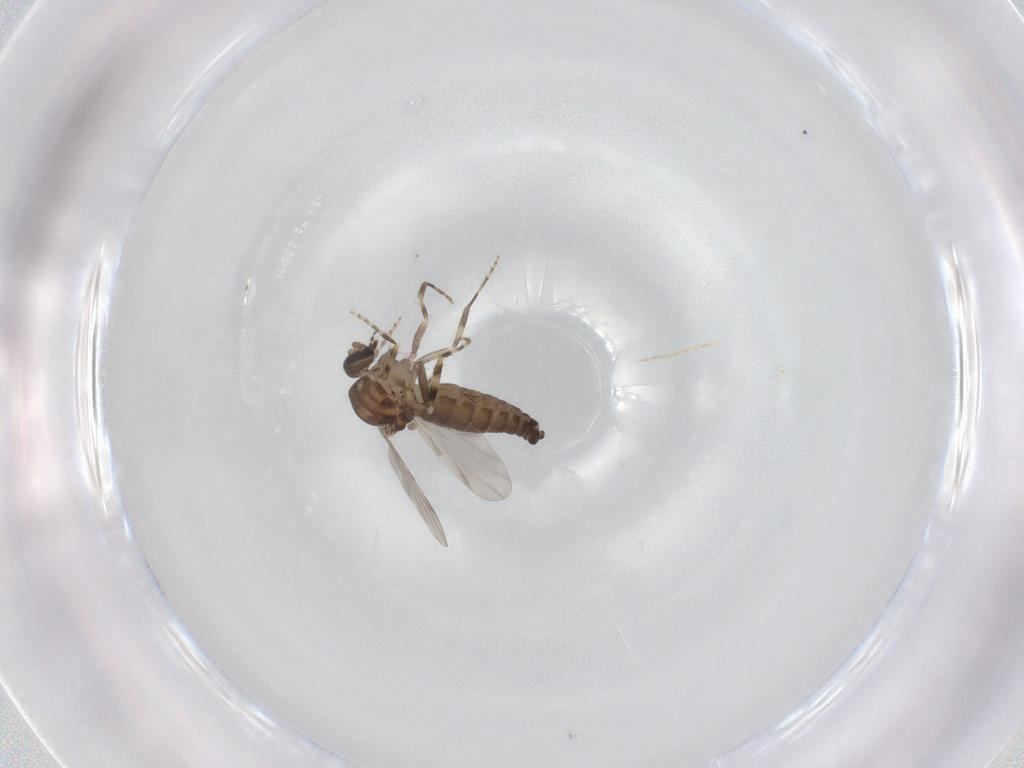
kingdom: Animalia
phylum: Arthropoda
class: Insecta
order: Diptera
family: Ceratopogonidae
